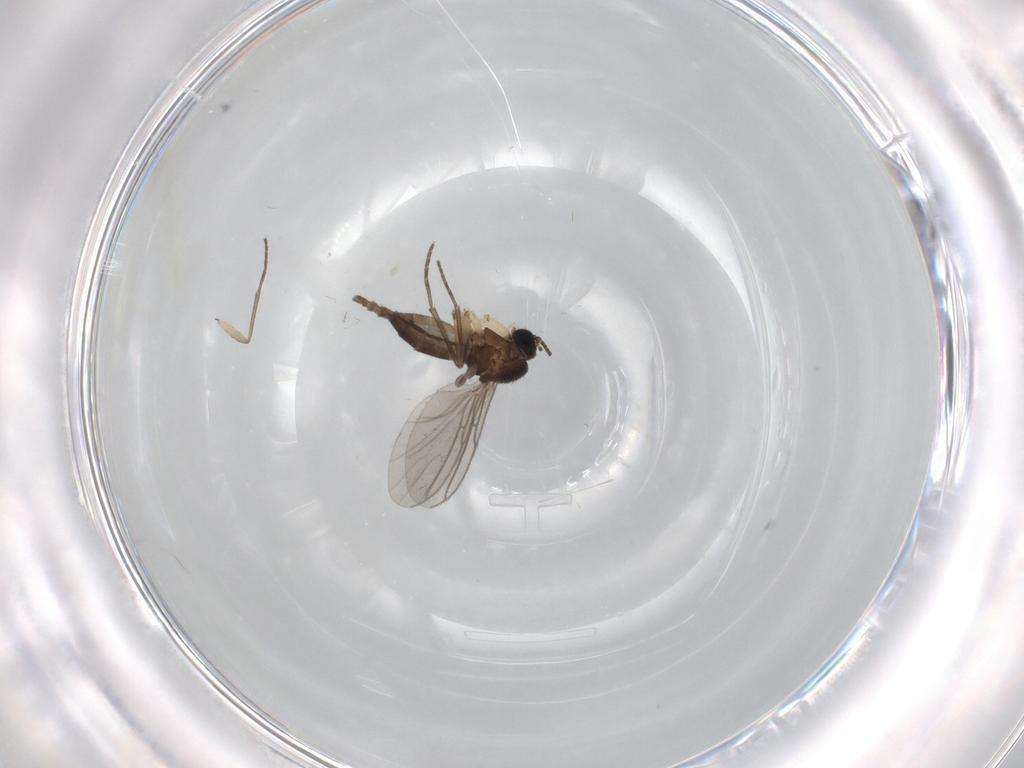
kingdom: Animalia
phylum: Arthropoda
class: Insecta
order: Diptera
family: Sciaridae
